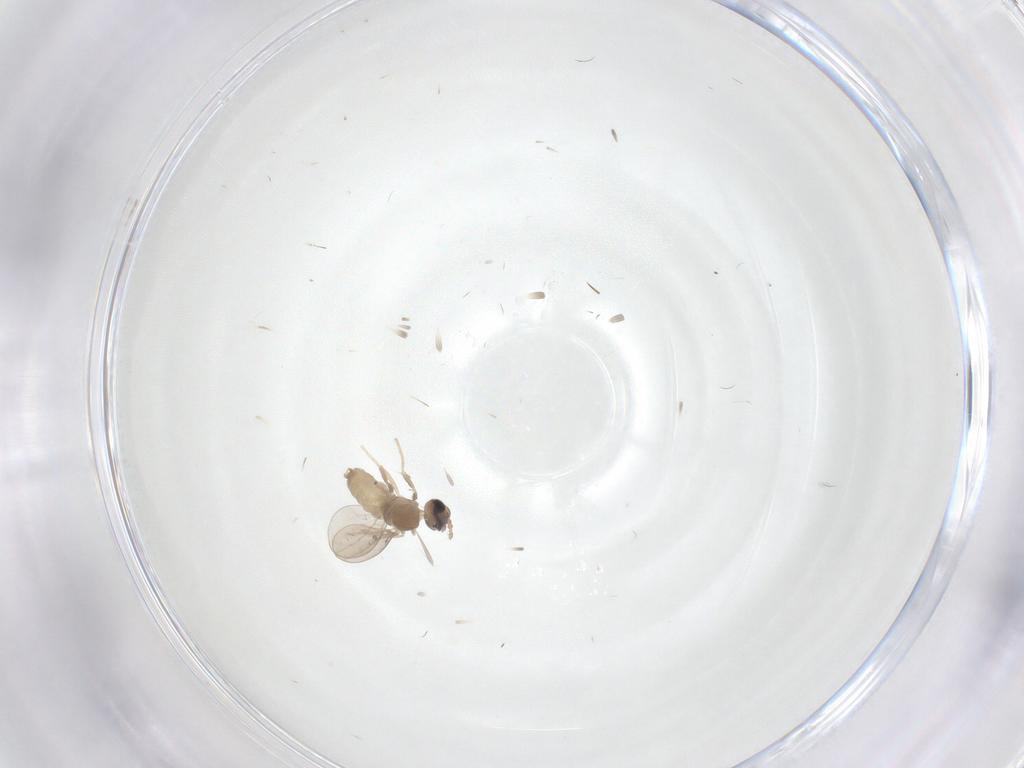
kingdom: Animalia
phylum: Arthropoda
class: Insecta
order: Diptera
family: Cecidomyiidae
